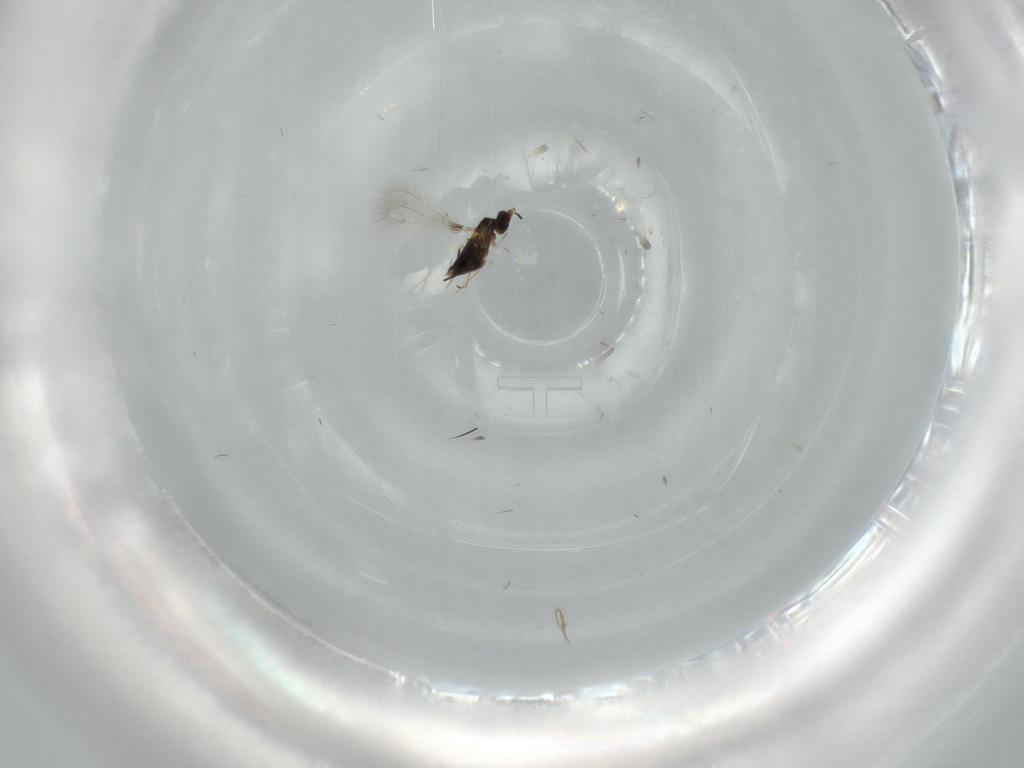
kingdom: Animalia
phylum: Arthropoda
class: Insecta
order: Hymenoptera
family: Mymaridae
